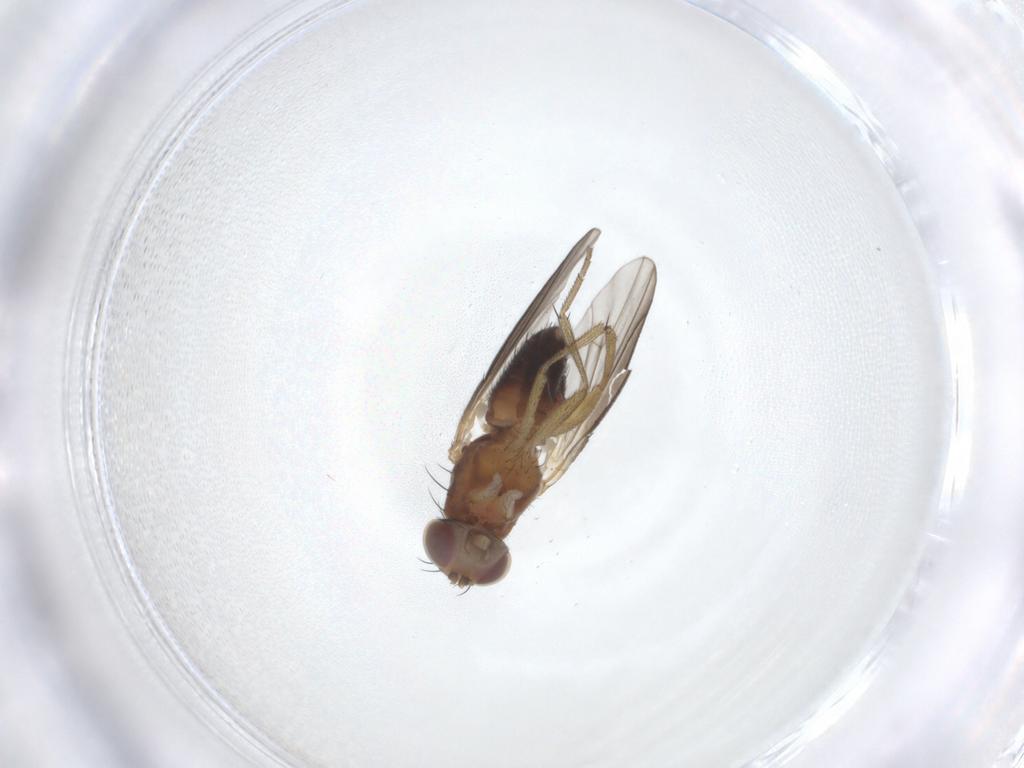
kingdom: Animalia
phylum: Arthropoda
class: Insecta
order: Diptera
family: Heleomyzidae
